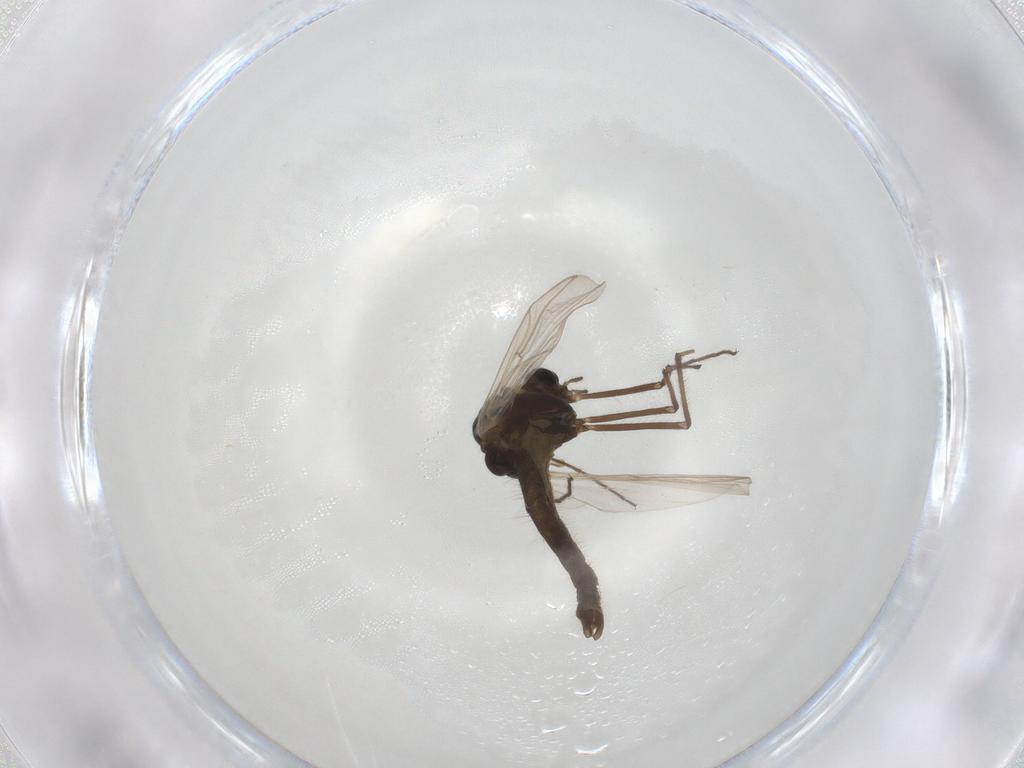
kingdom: Animalia
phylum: Arthropoda
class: Insecta
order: Diptera
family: Chironomidae
